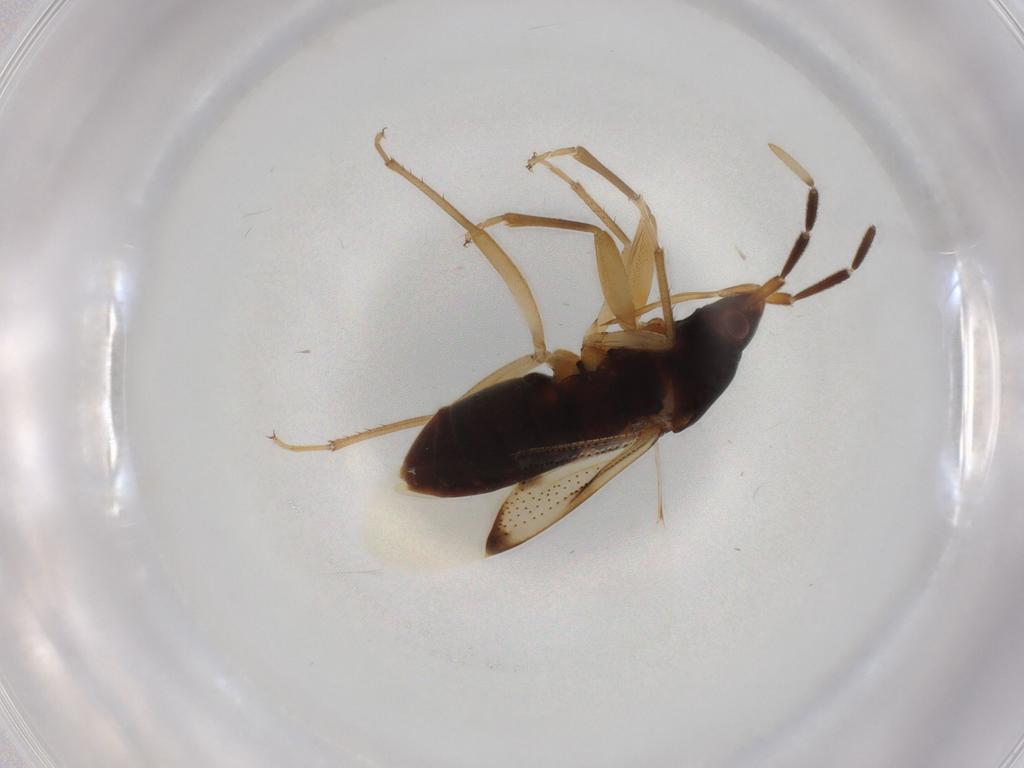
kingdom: Animalia
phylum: Arthropoda
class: Insecta
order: Hemiptera
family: Rhyparochromidae
